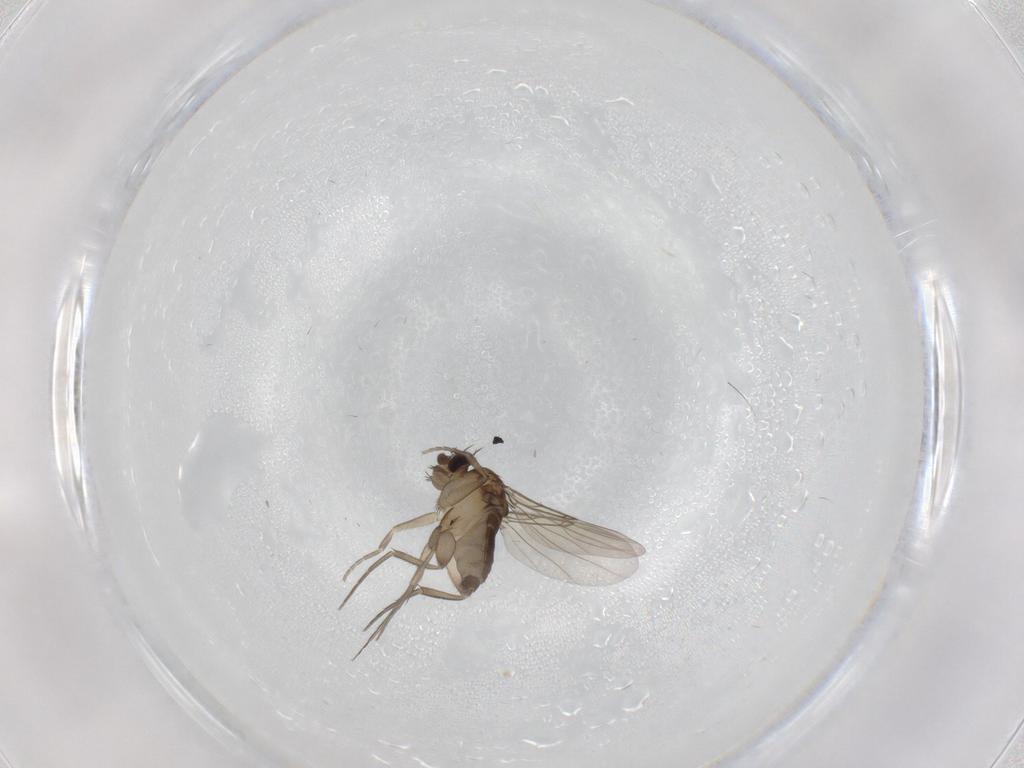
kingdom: Animalia
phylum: Arthropoda
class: Insecta
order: Diptera
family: Phoridae
